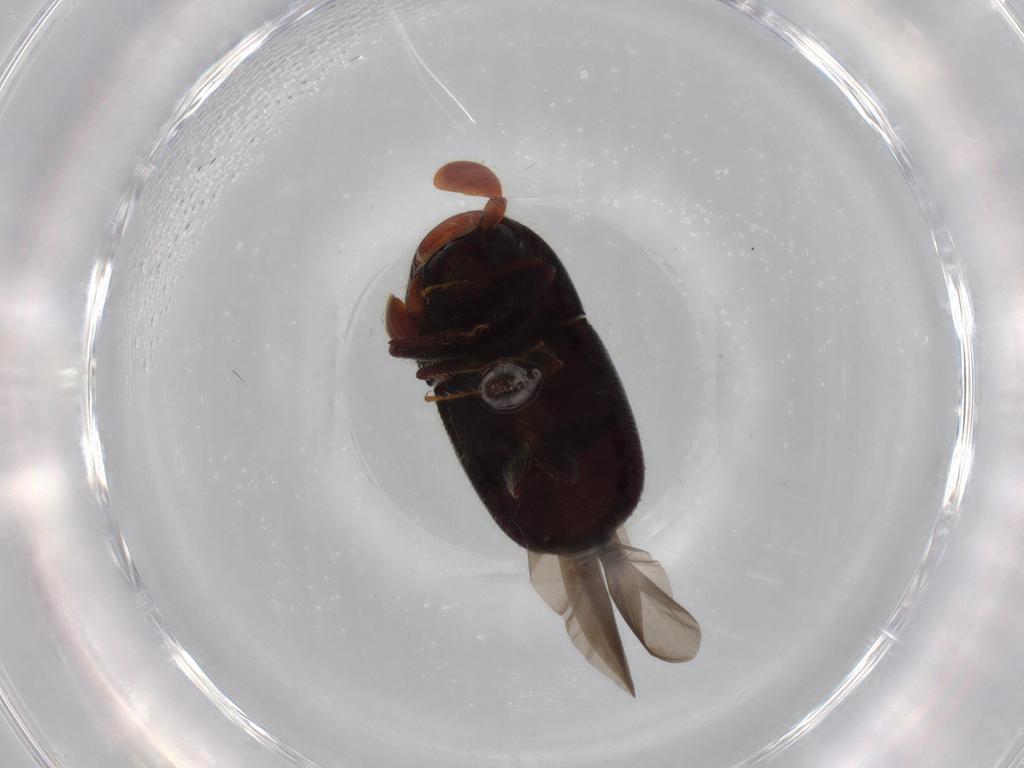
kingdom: Animalia
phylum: Arthropoda
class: Insecta
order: Coleoptera
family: Curculionidae
